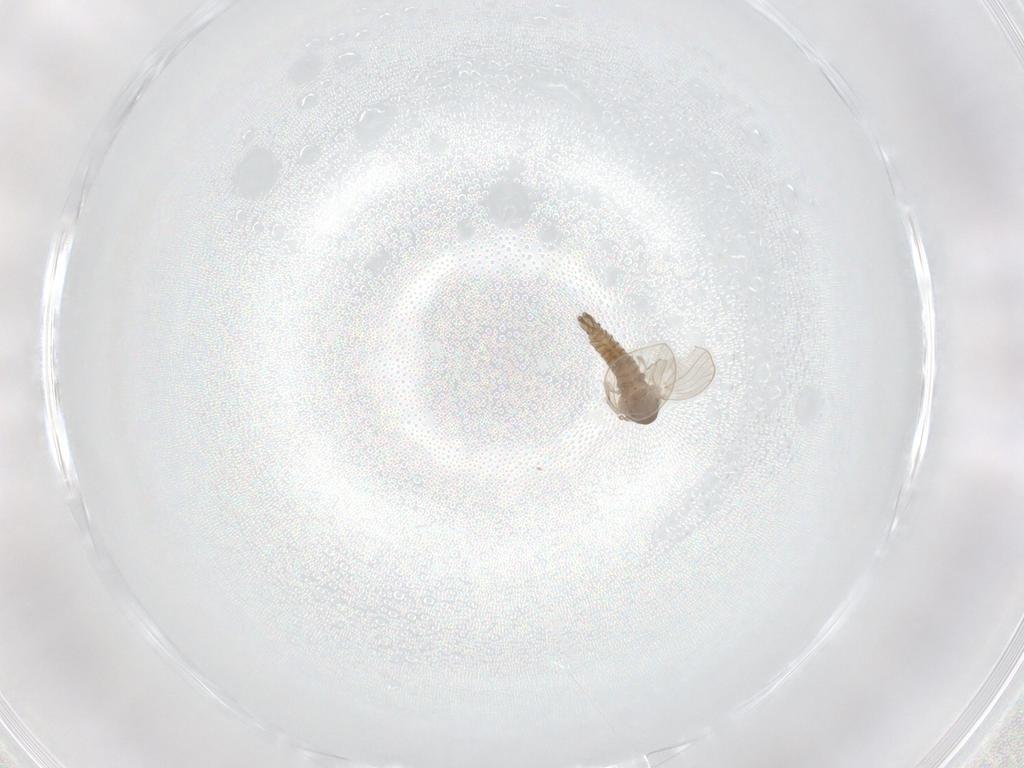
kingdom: Animalia
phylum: Arthropoda
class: Insecta
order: Diptera
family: Psychodidae
